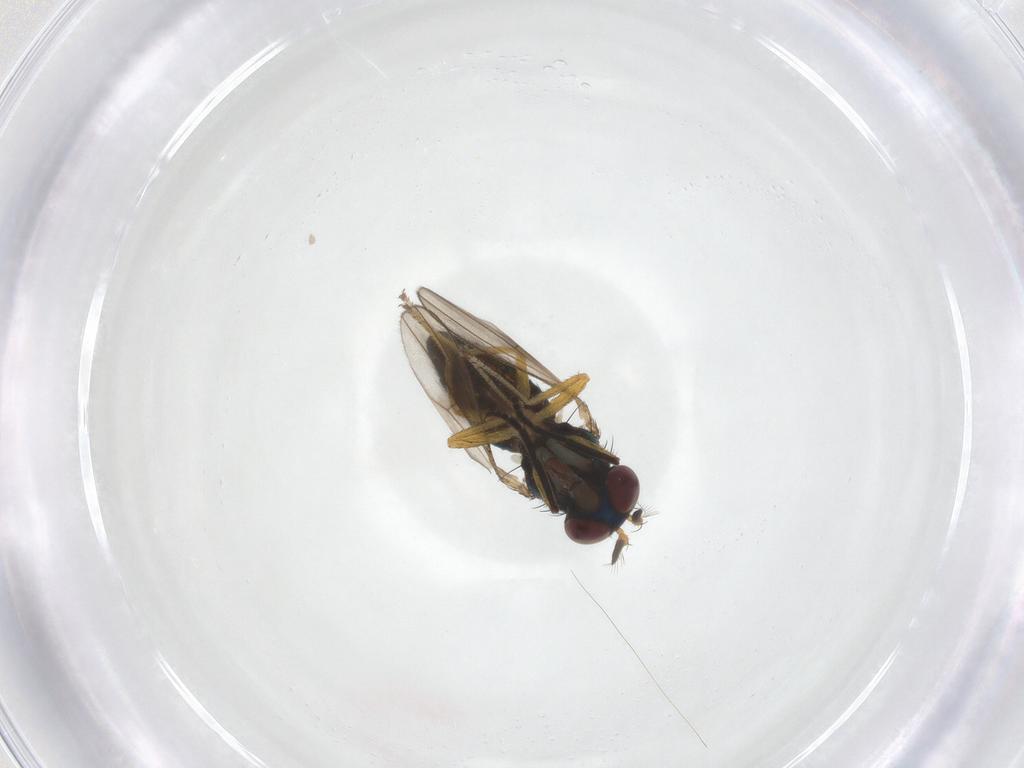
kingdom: Animalia
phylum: Arthropoda
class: Insecta
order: Diptera
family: Ephydridae
